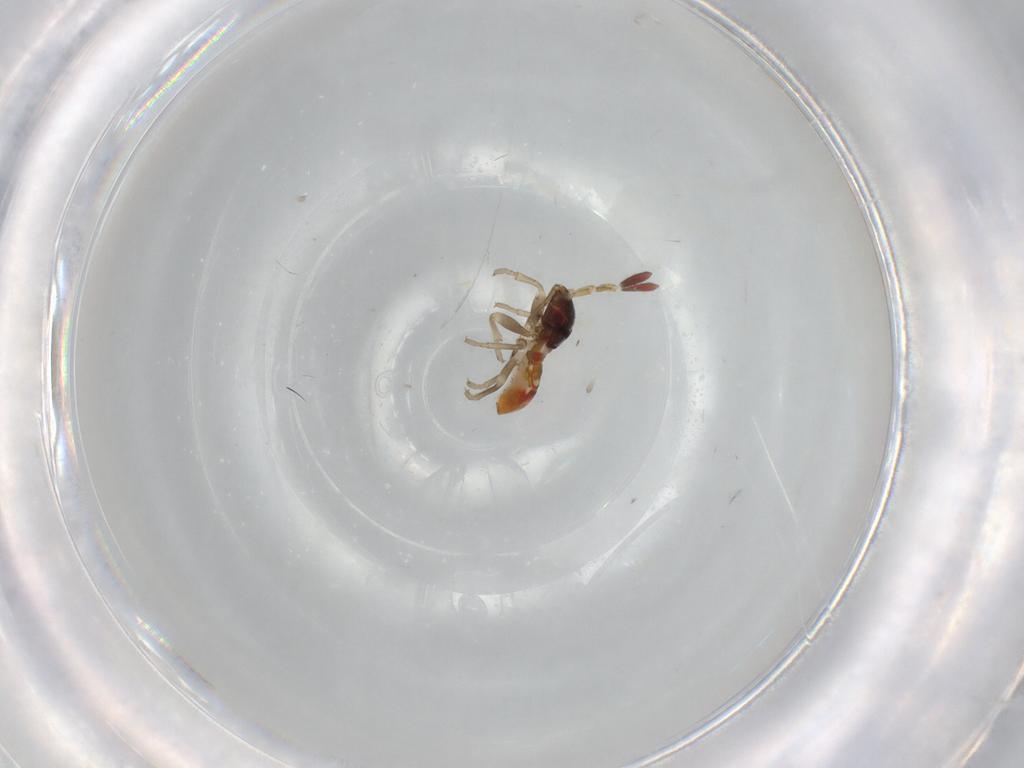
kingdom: Animalia
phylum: Arthropoda
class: Insecta
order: Hemiptera
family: Rhyparochromidae
